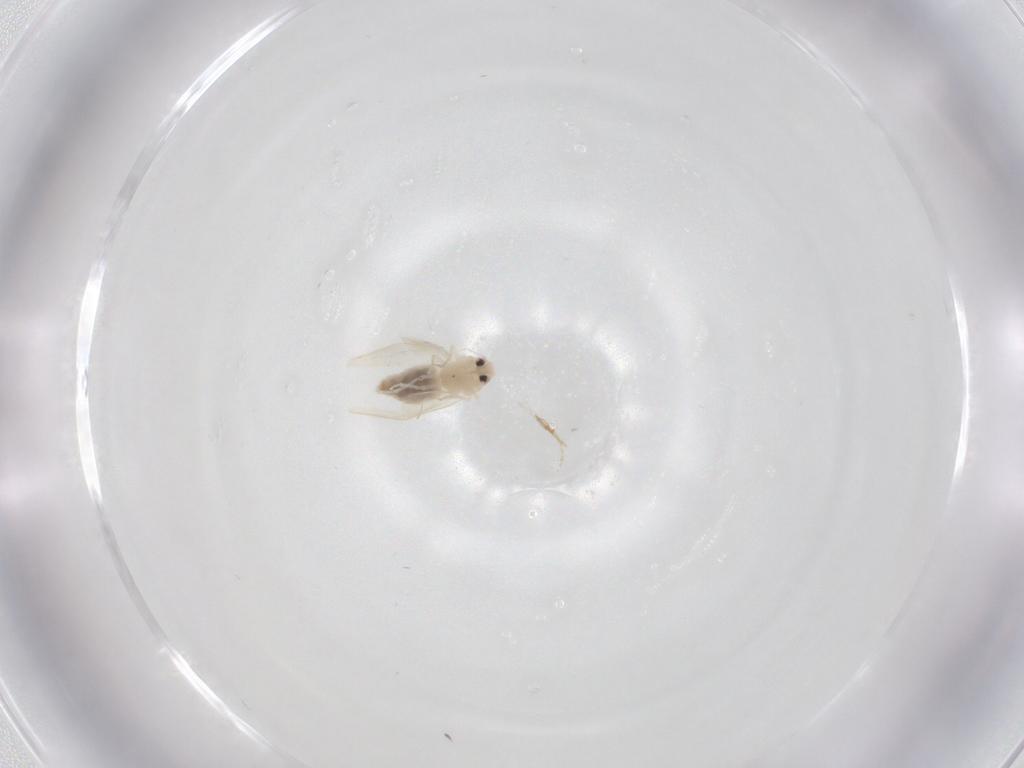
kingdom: Animalia
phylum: Arthropoda
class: Insecta
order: Hemiptera
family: Aleyrodidae
